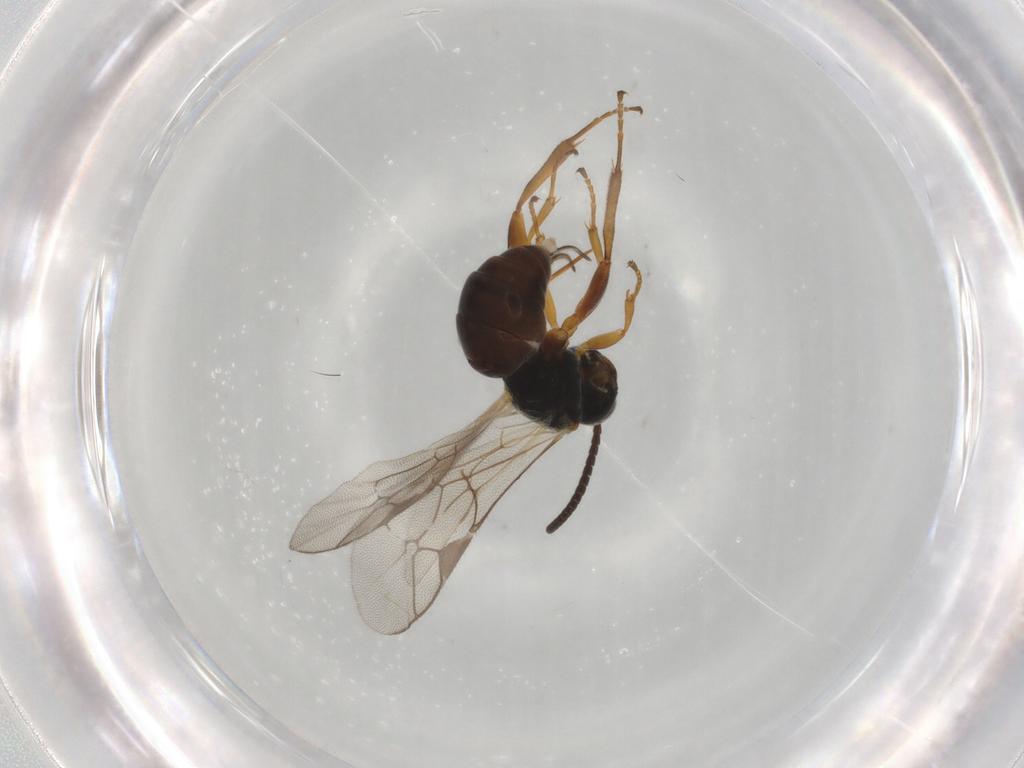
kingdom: Animalia
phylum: Arthropoda
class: Insecta
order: Hymenoptera
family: Ichneumonidae
